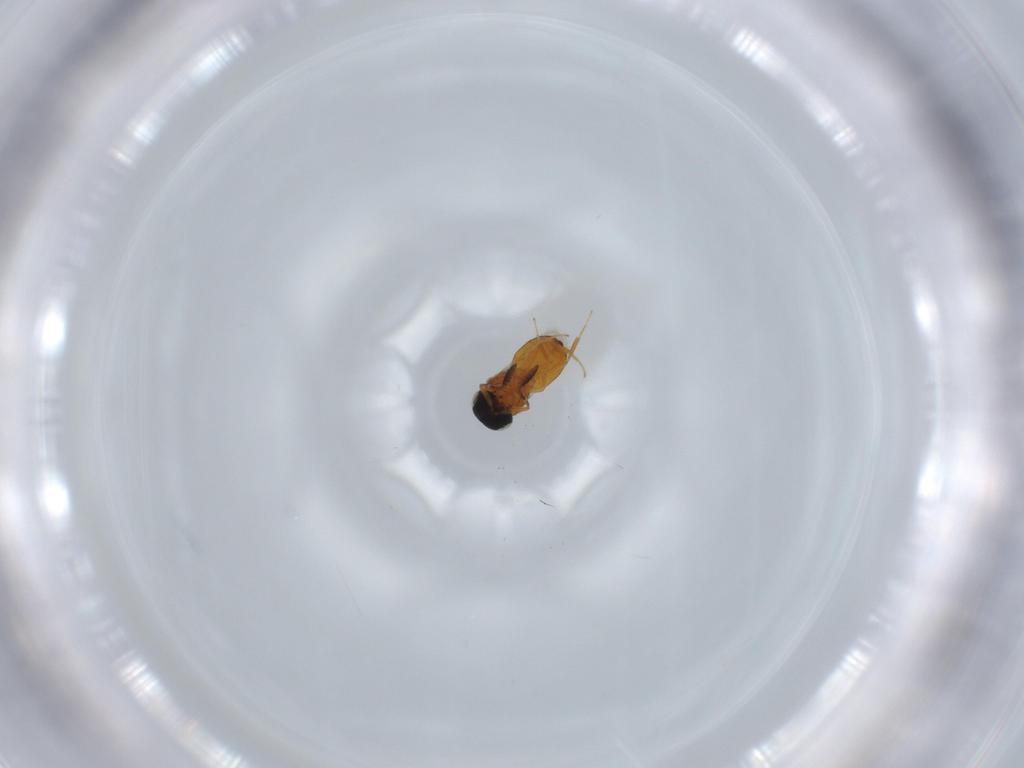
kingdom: Animalia
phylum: Arthropoda
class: Insecta
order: Hymenoptera
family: Scelionidae
